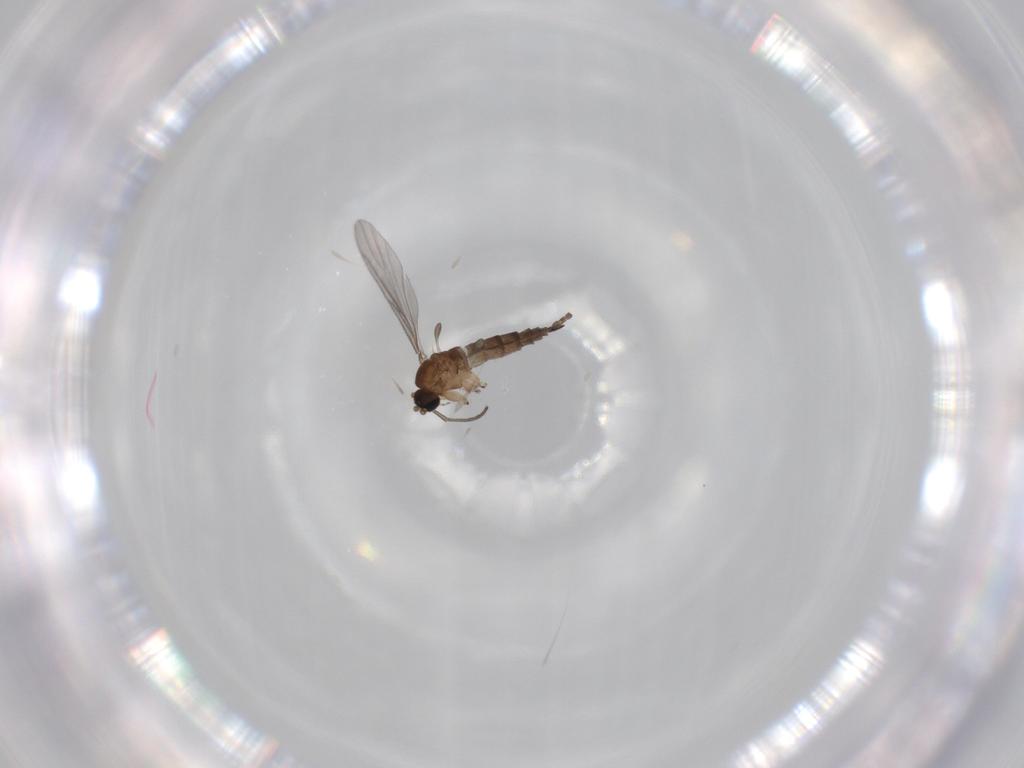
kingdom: Animalia
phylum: Arthropoda
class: Insecta
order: Diptera
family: Sciaridae
